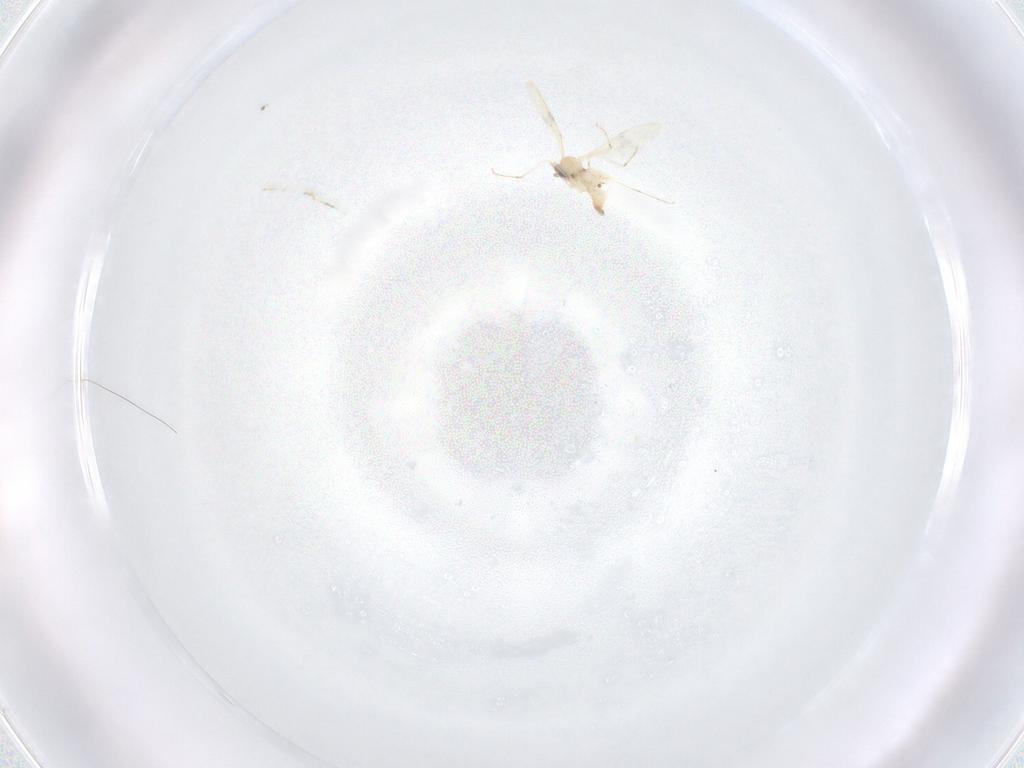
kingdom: Animalia
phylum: Arthropoda
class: Insecta
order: Diptera
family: Cecidomyiidae
